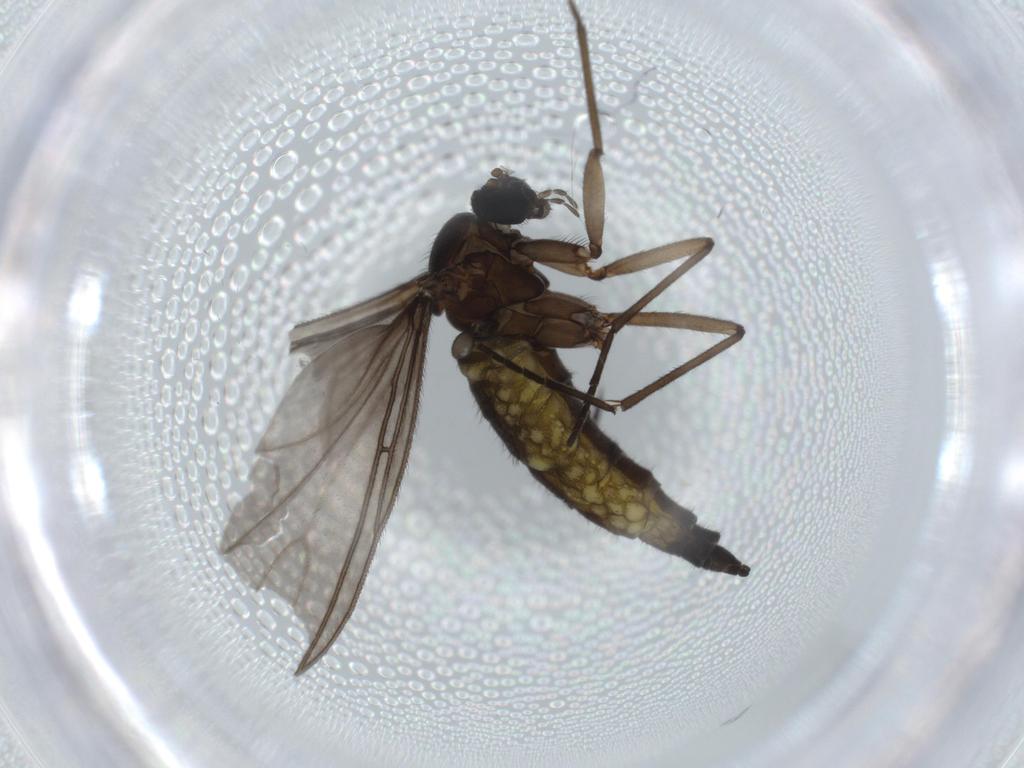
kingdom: Animalia
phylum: Arthropoda
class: Insecta
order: Diptera
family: Sciaridae
